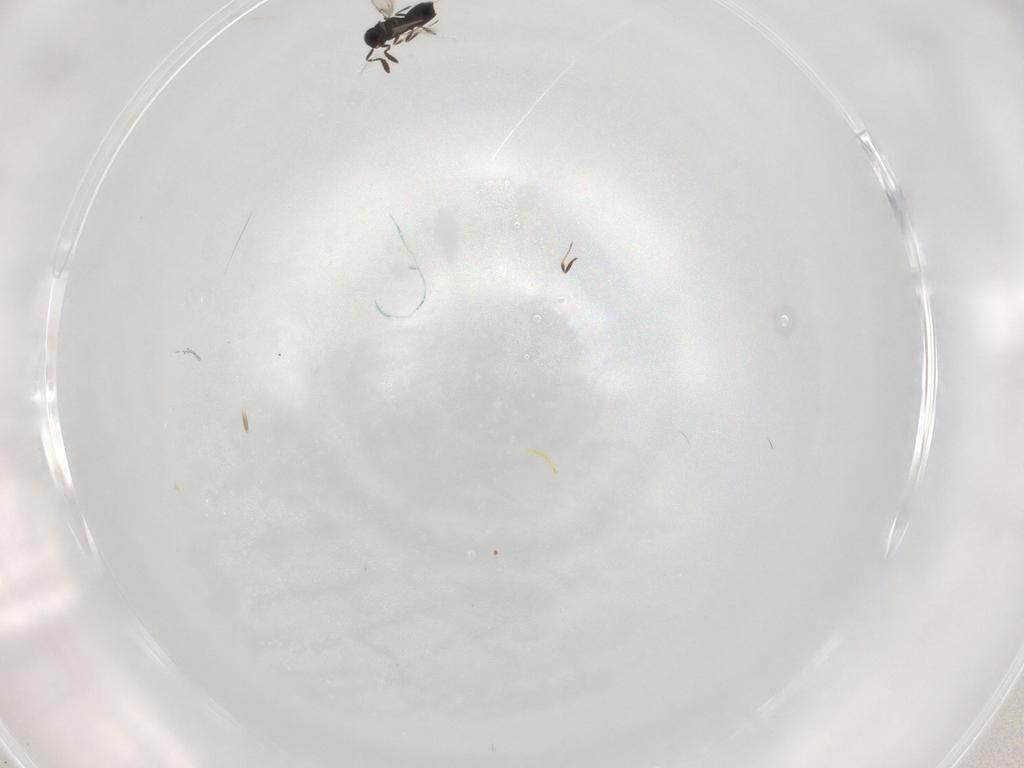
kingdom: Animalia
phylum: Arthropoda
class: Insecta
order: Hymenoptera
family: Scelionidae
